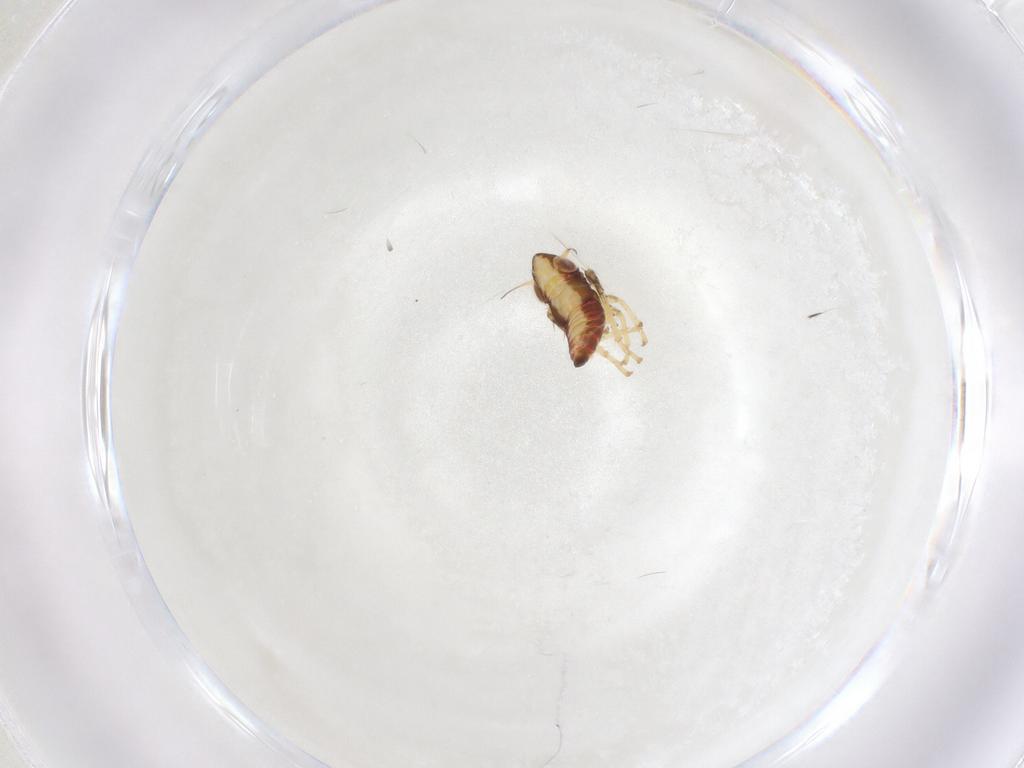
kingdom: Animalia
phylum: Arthropoda
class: Insecta
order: Hemiptera
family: Cicadellidae
